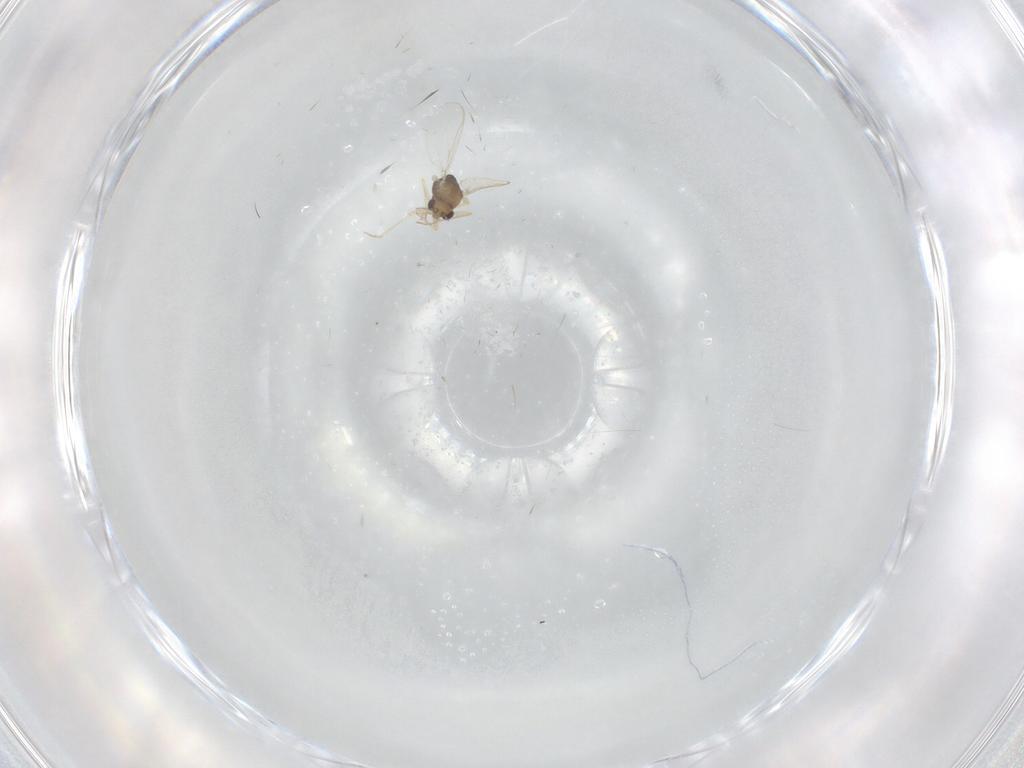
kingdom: Animalia
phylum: Arthropoda
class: Insecta
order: Diptera
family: Chironomidae
